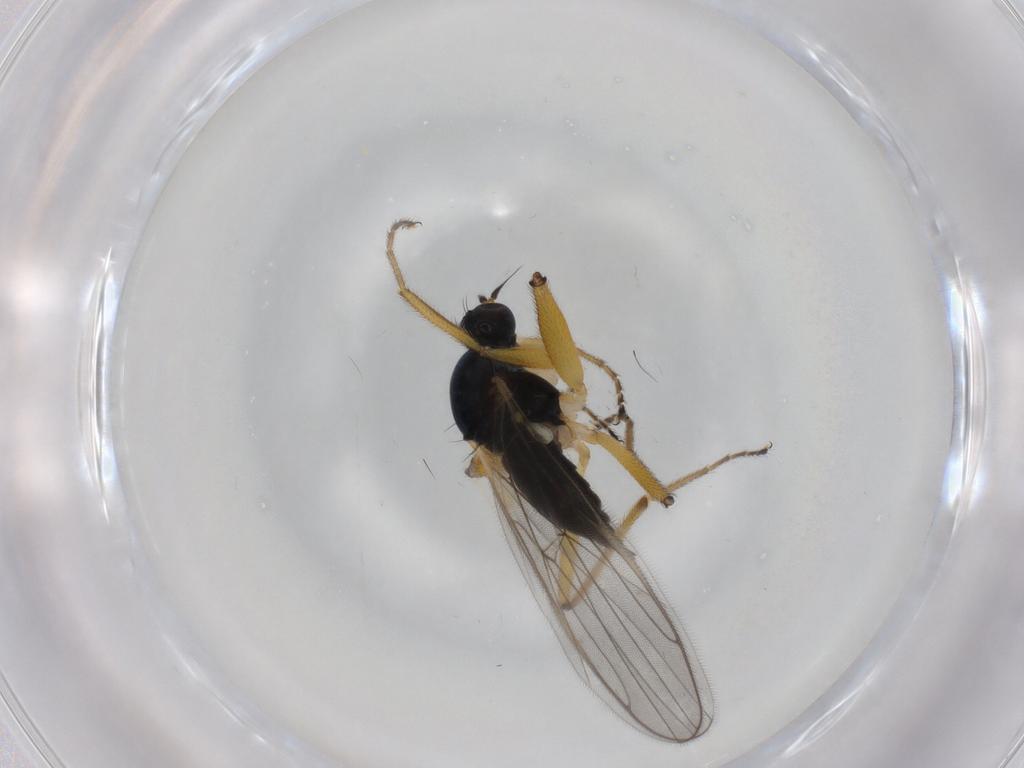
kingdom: Animalia
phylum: Arthropoda
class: Insecta
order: Diptera
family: Hybotidae
